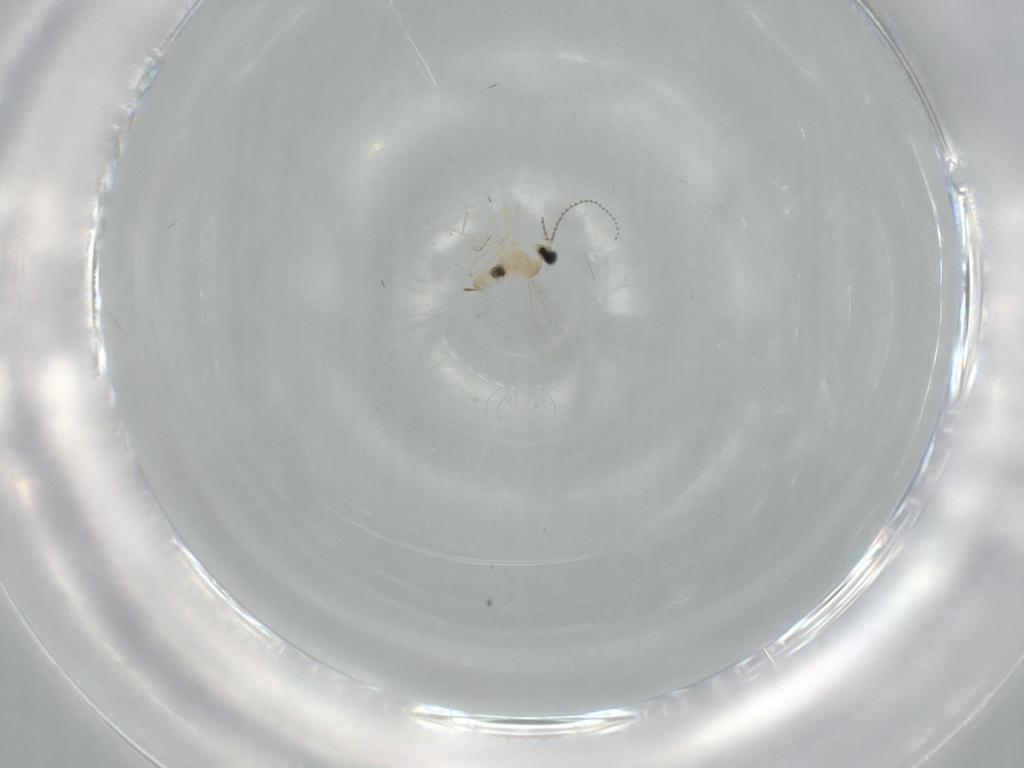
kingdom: Animalia
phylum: Arthropoda
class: Insecta
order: Diptera
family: Cecidomyiidae
